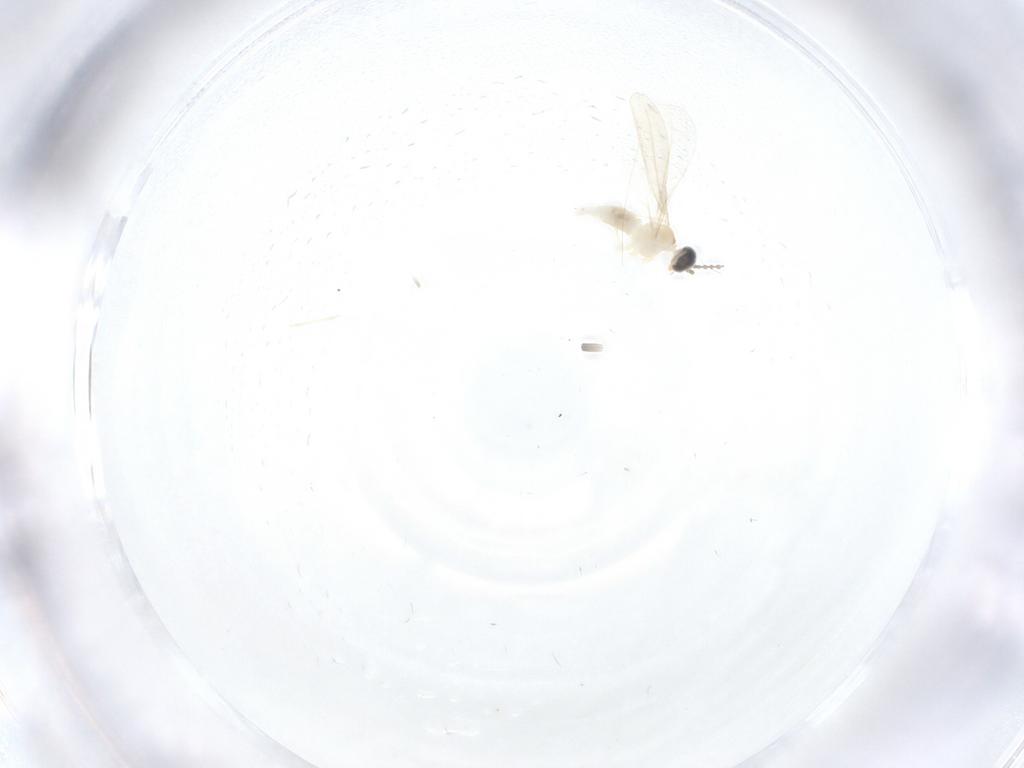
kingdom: Animalia
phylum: Arthropoda
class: Insecta
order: Diptera
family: Cecidomyiidae
